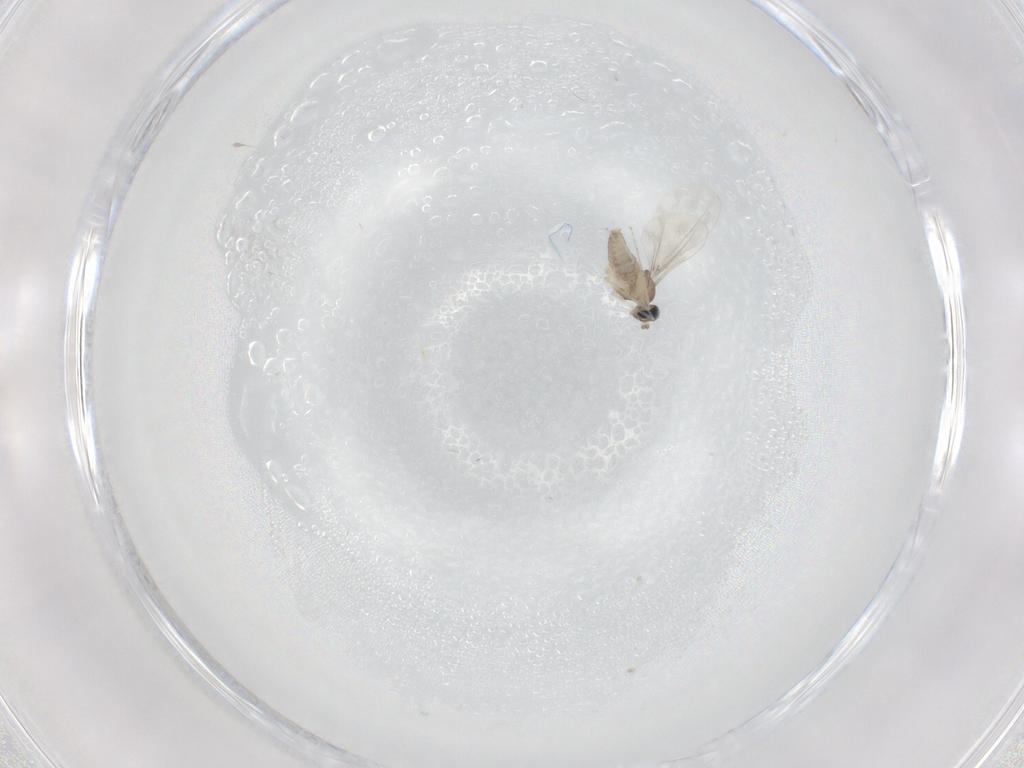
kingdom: Animalia
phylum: Arthropoda
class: Insecta
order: Diptera
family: Cecidomyiidae
